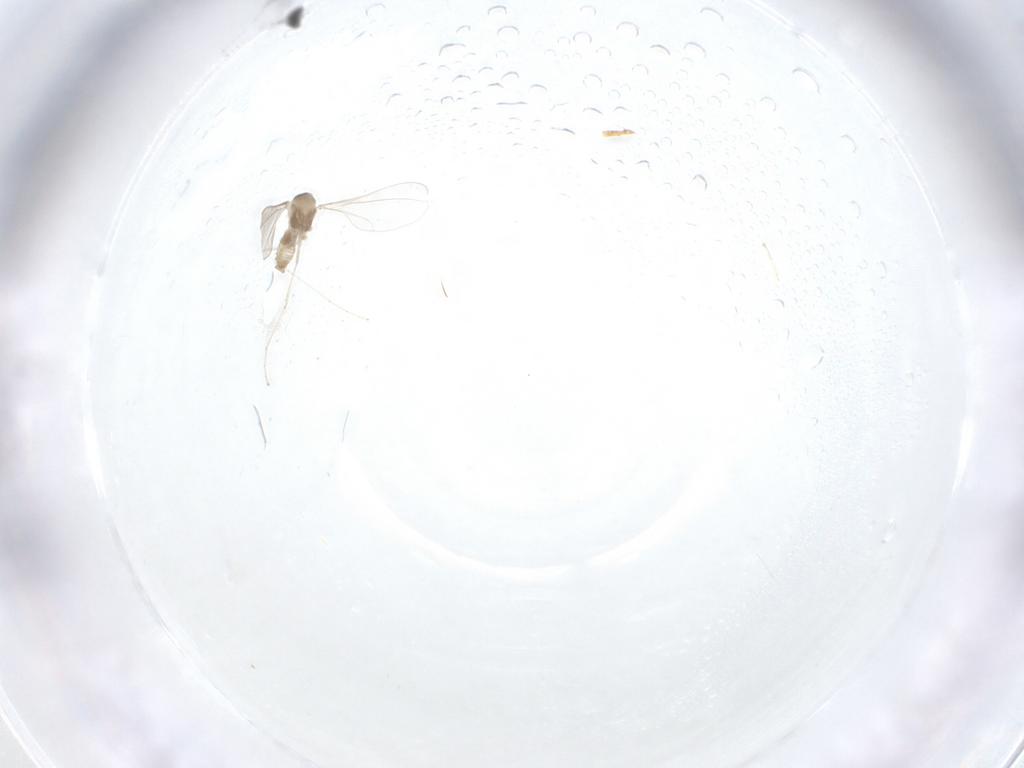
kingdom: Animalia
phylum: Arthropoda
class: Insecta
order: Diptera
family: Cecidomyiidae
